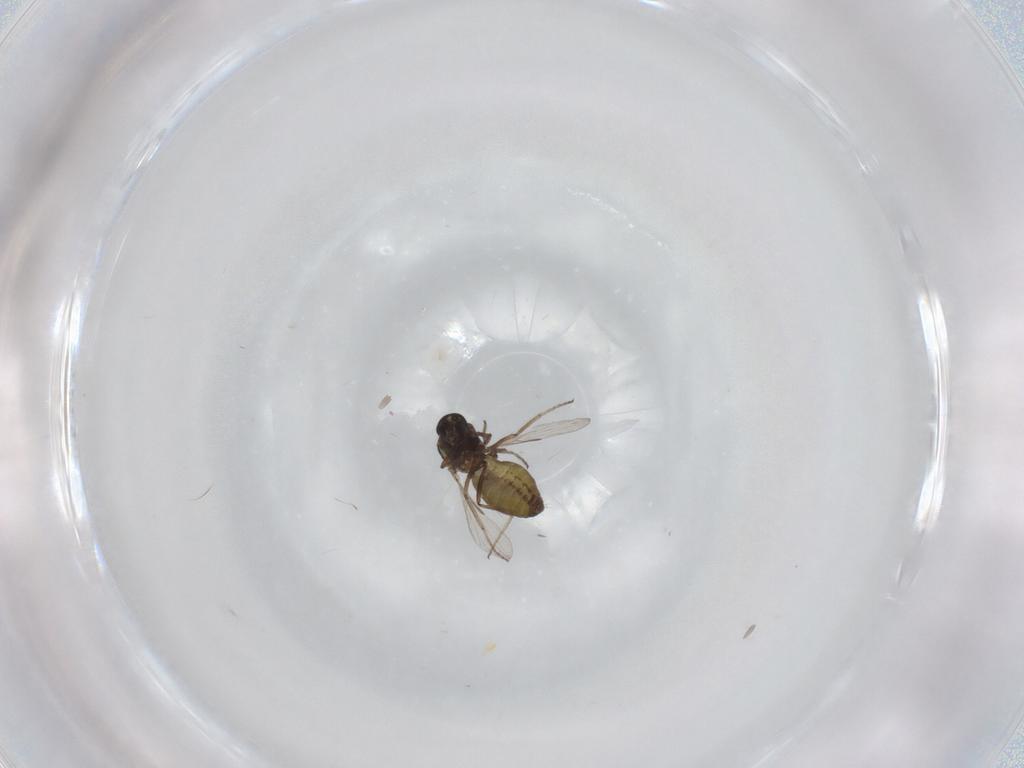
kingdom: Animalia
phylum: Arthropoda
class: Insecta
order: Diptera
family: Ceratopogonidae
